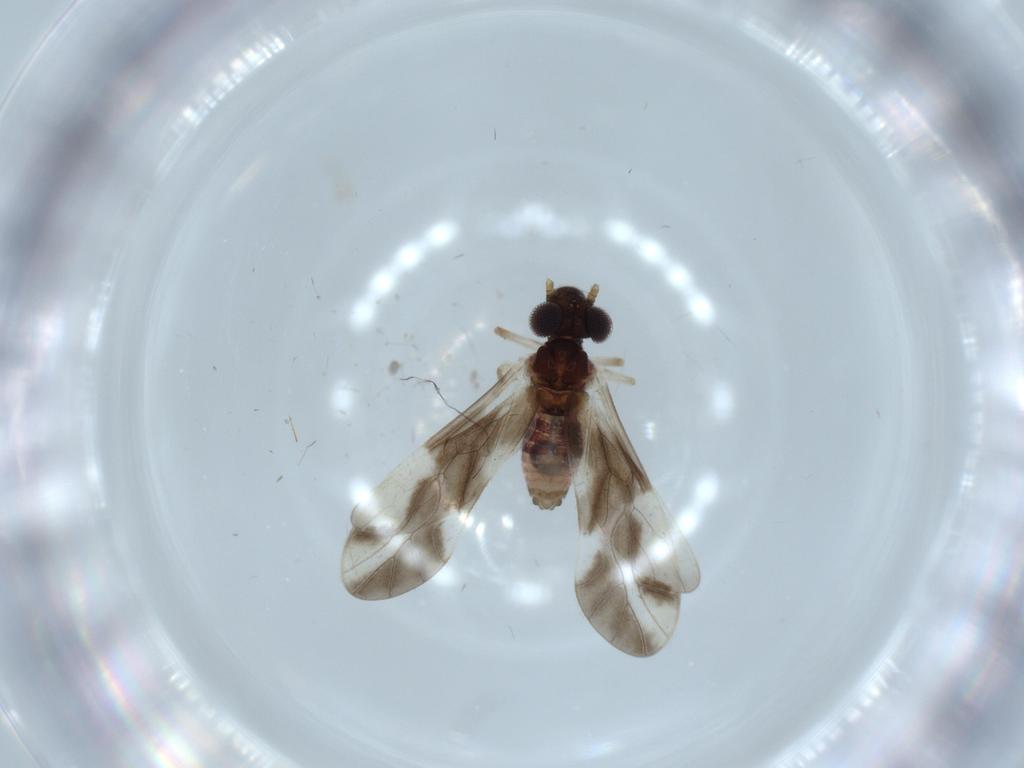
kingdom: Animalia
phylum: Arthropoda
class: Insecta
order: Psocodea
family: Caeciliusidae
